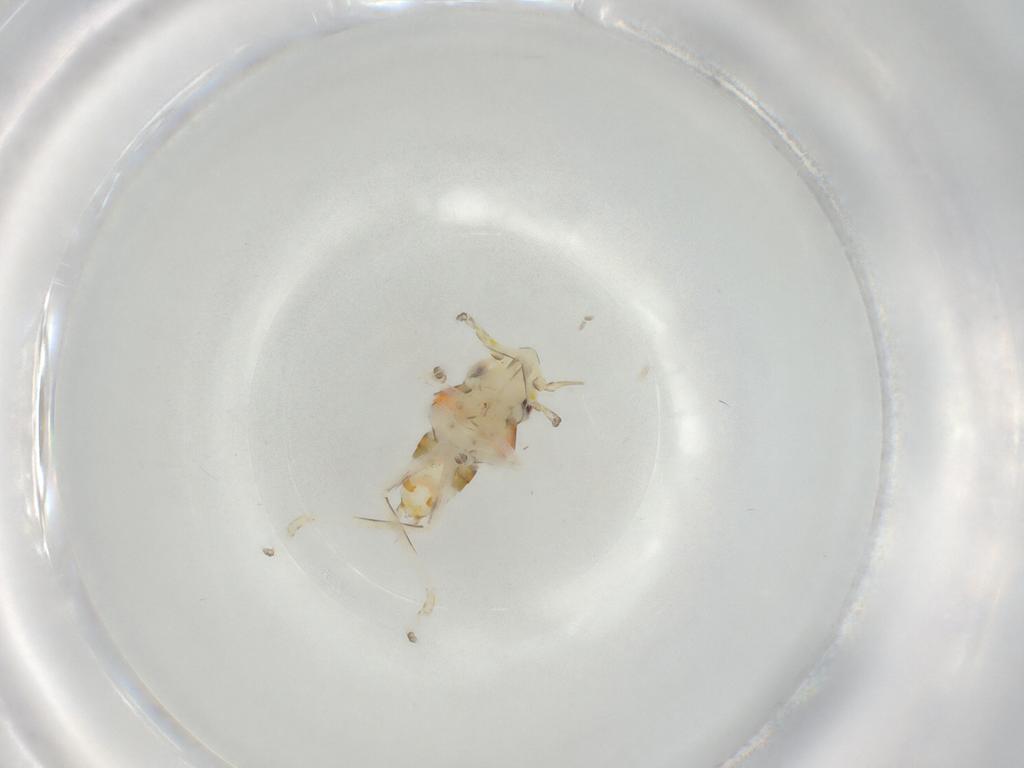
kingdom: Animalia
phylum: Arthropoda
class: Insecta
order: Hemiptera
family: Cicadellidae
